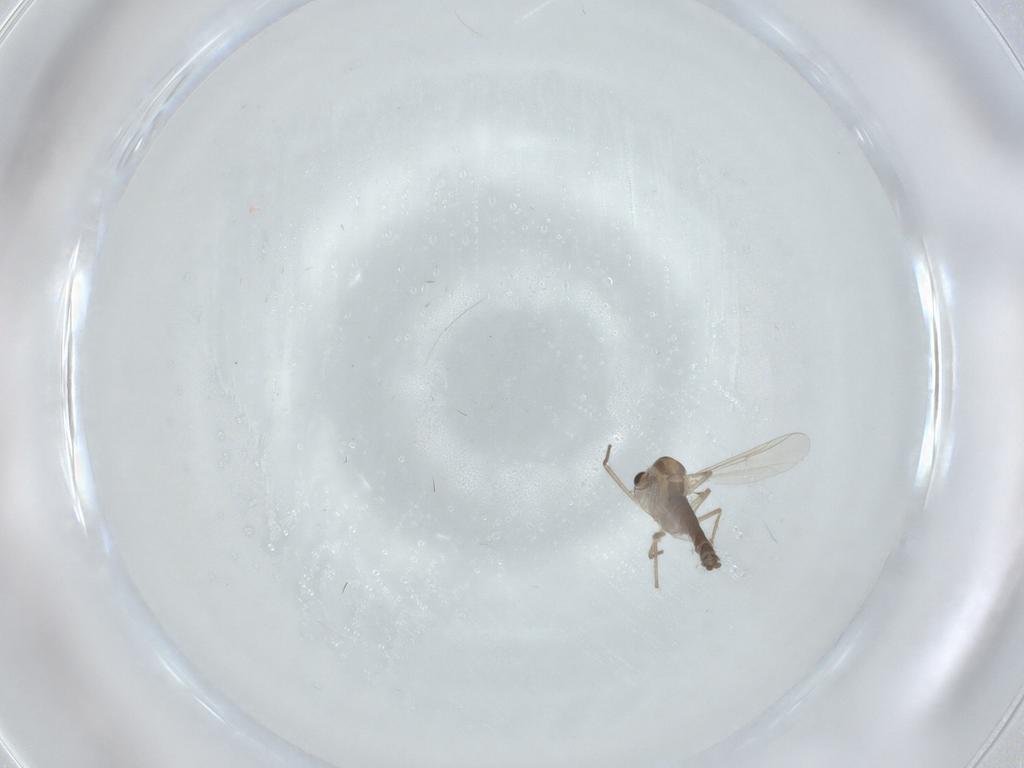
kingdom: Animalia
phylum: Arthropoda
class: Insecta
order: Diptera
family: Chironomidae
